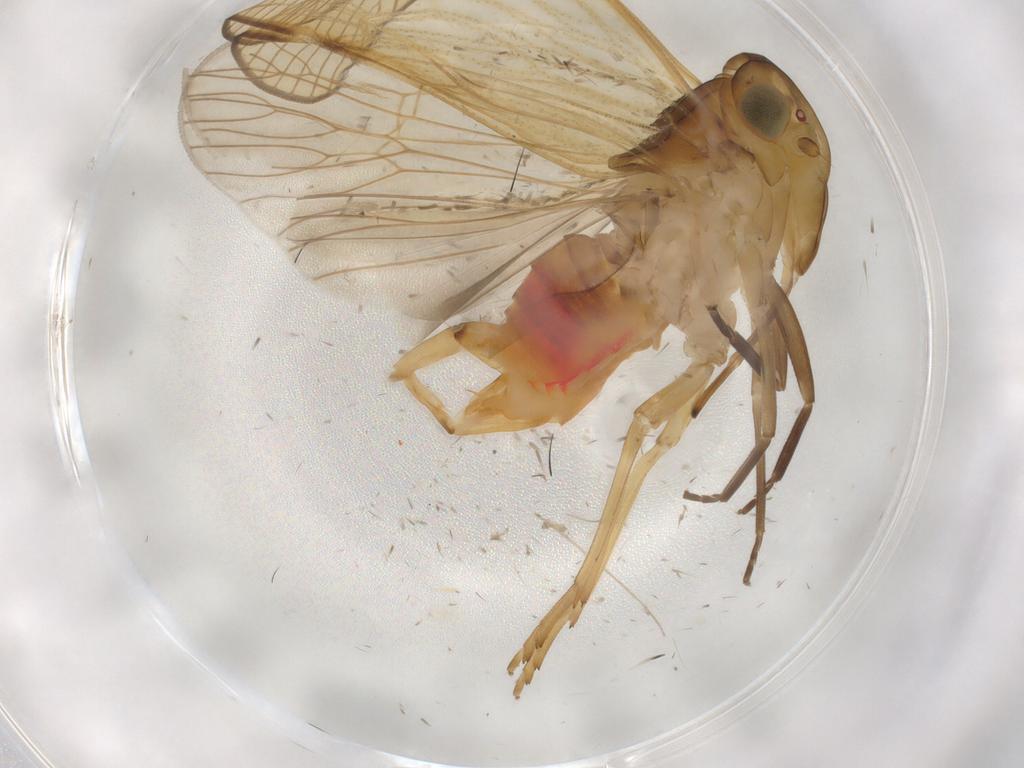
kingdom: Animalia
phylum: Arthropoda
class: Insecta
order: Hemiptera
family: Cixiidae
